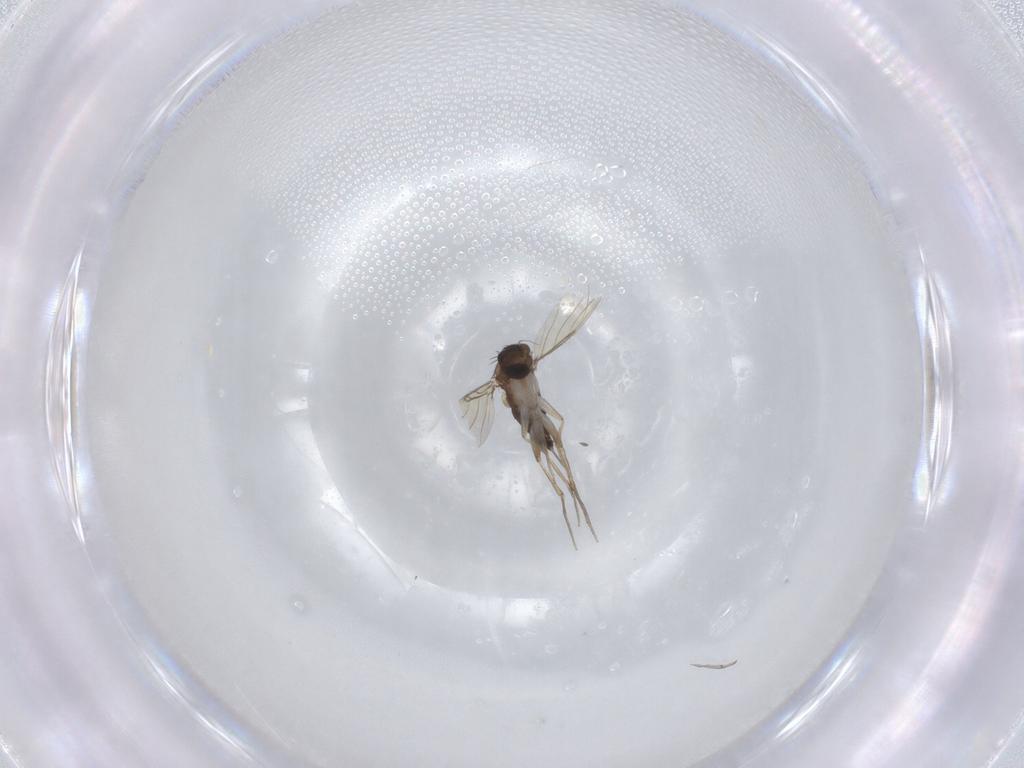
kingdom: Animalia
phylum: Arthropoda
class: Insecta
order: Diptera
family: Phoridae
